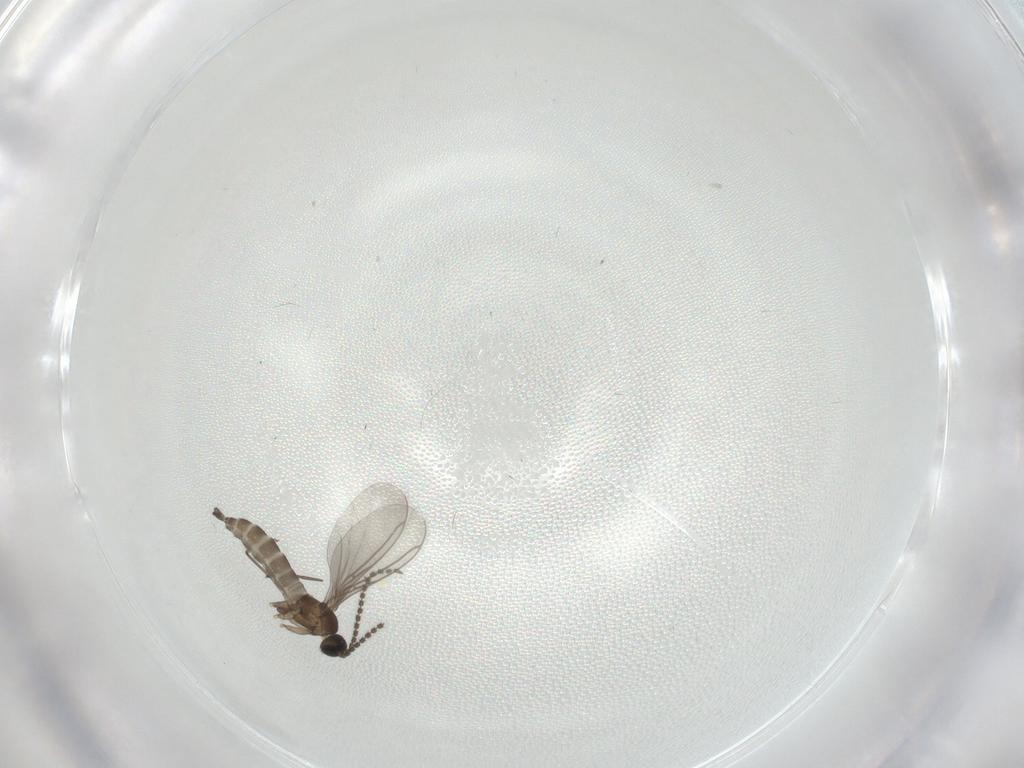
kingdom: Animalia
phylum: Arthropoda
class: Insecta
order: Diptera
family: Sciaridae
